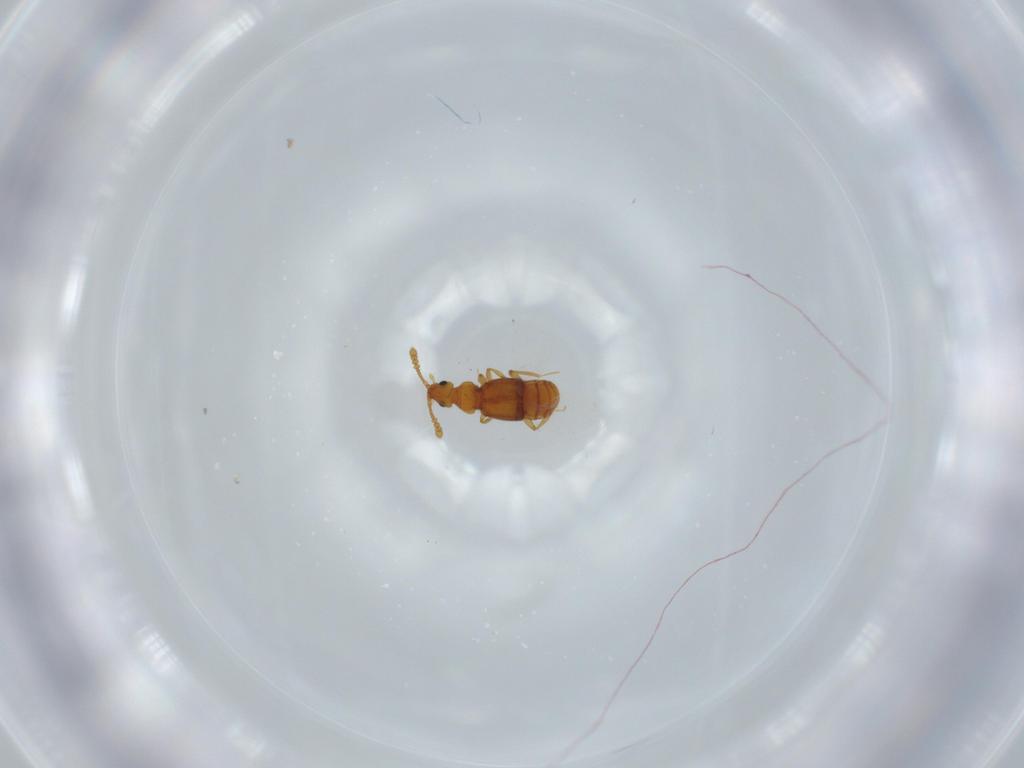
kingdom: Animalia
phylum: Arthropoda
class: Insecta
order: Coleoptera
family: Staphylinidae
